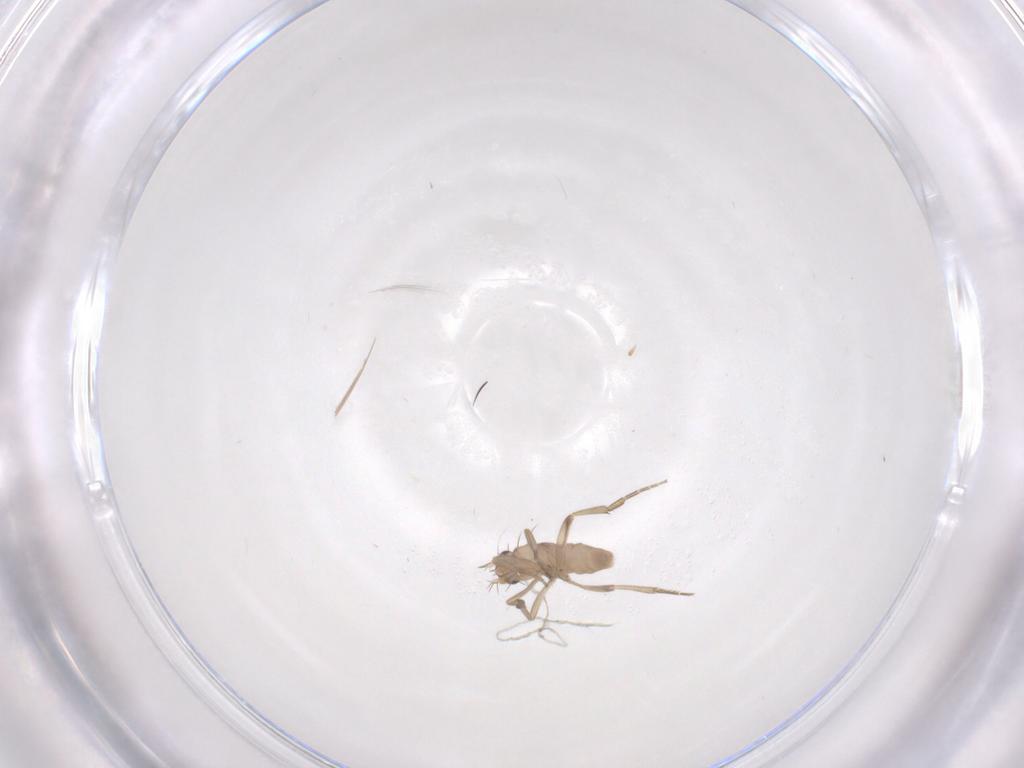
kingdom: Animalia
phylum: Arthropoda
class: Insecta
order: Diptera
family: Phoridae
